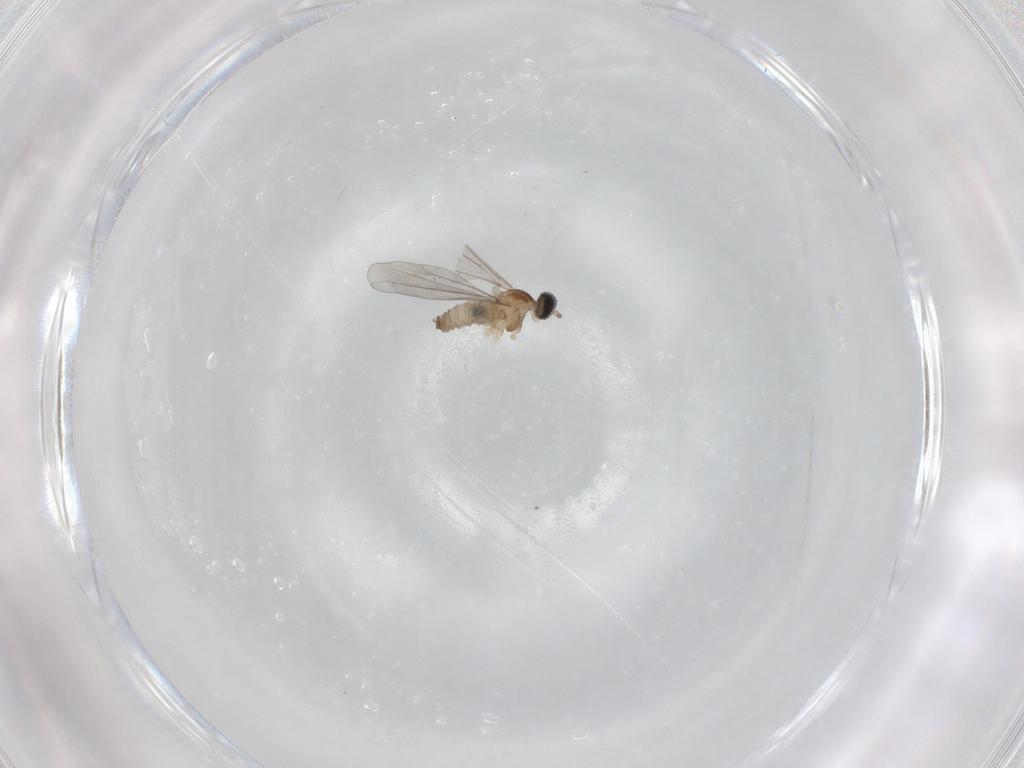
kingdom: Animalia
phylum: Arthropoda
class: Insecta
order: Diptera
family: Cecidomyiidae
